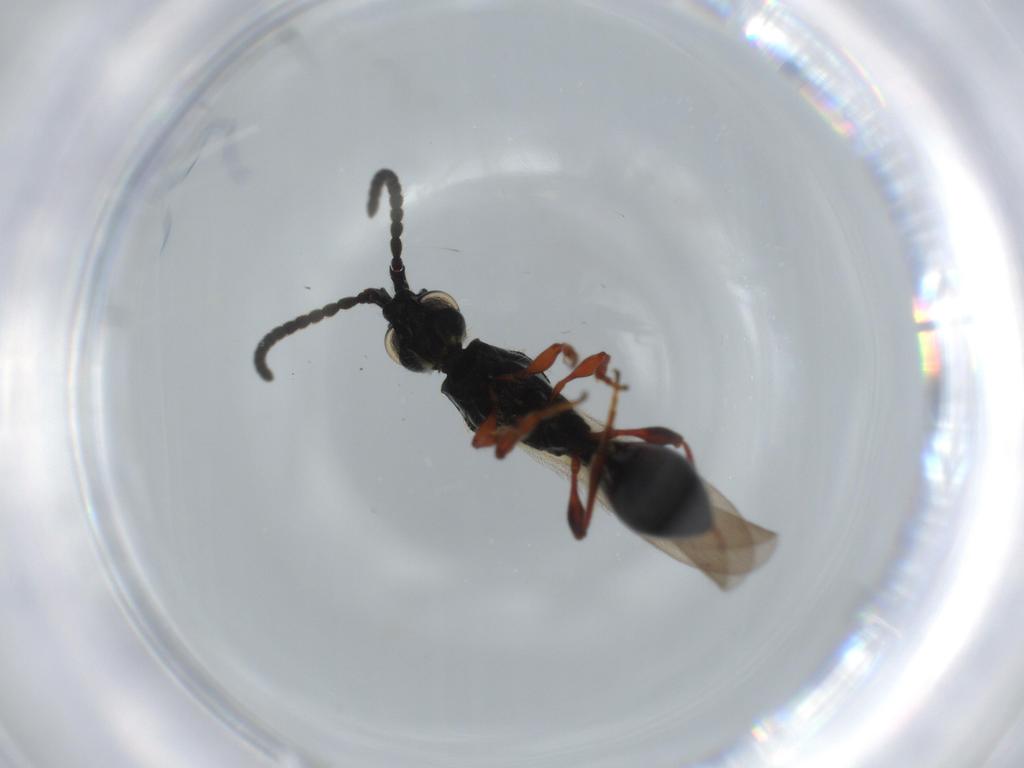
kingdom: Animalia
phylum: Arthropoda
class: Insecta
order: Hymenoptera
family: Diapriidae
